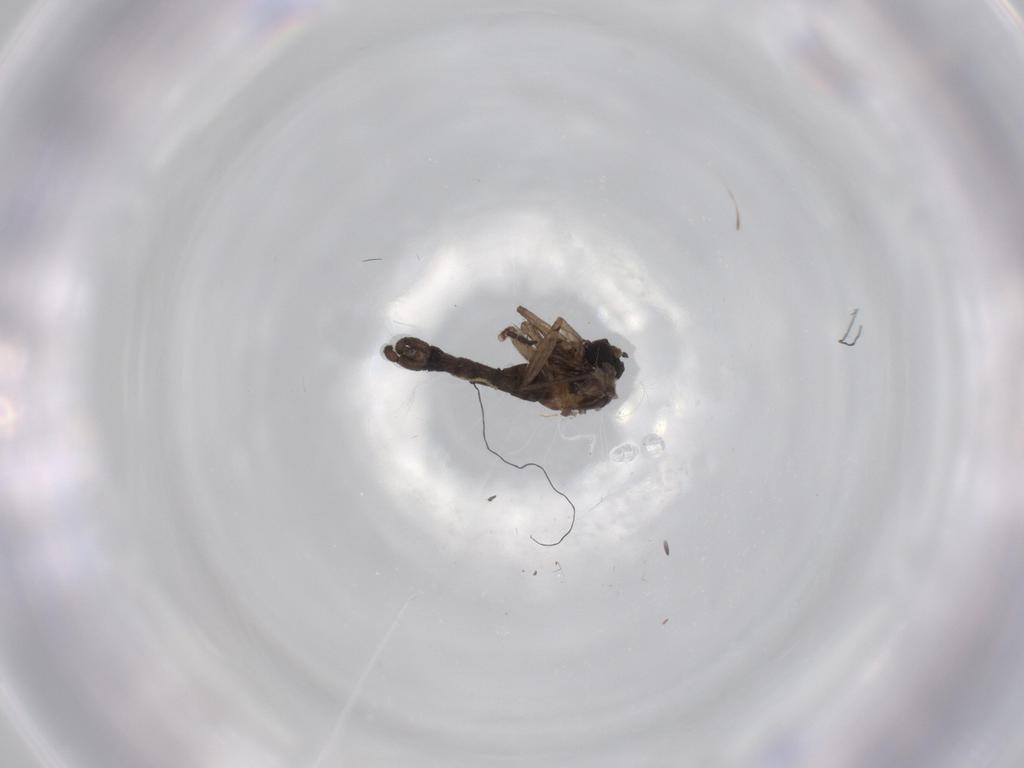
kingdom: Animalia
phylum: Arthropoda
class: Insecta
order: Diptera
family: Sciaridae
